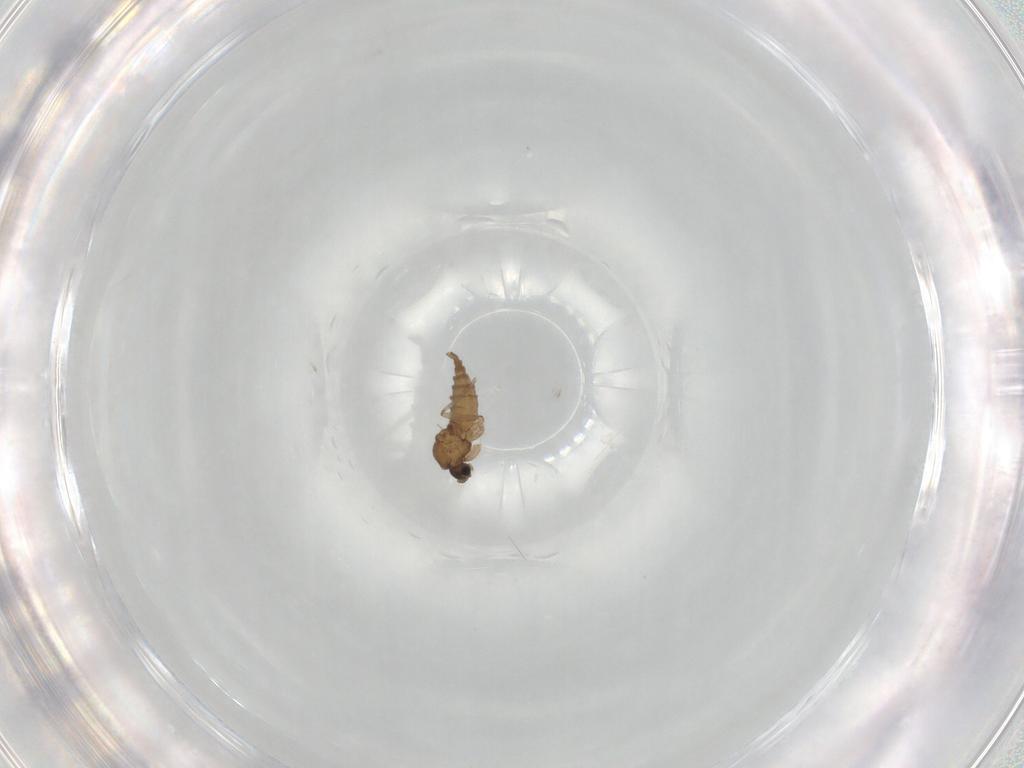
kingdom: Animalia
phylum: Arthropoda
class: Insecta
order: Diptera
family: Sciaridae
